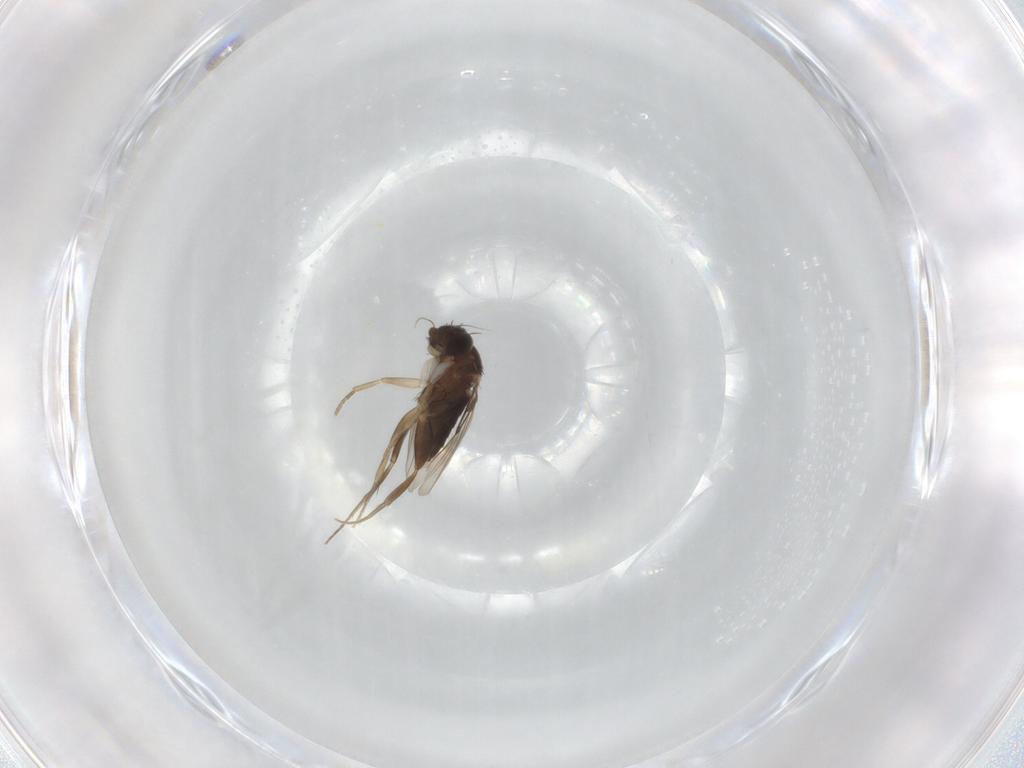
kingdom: Animalia
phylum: Arthropoda
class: Insecta
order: Diptera
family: Phoridae
